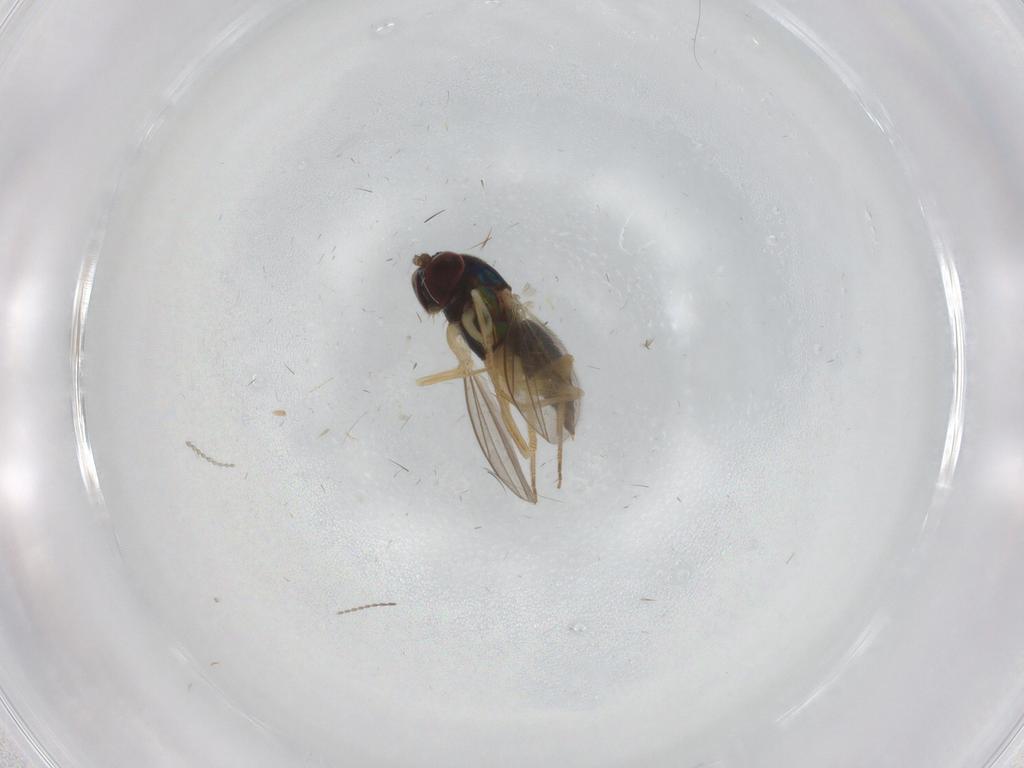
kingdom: Animalia
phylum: Arthropoda
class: Insecta
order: Diptera
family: Dolichopodidae
